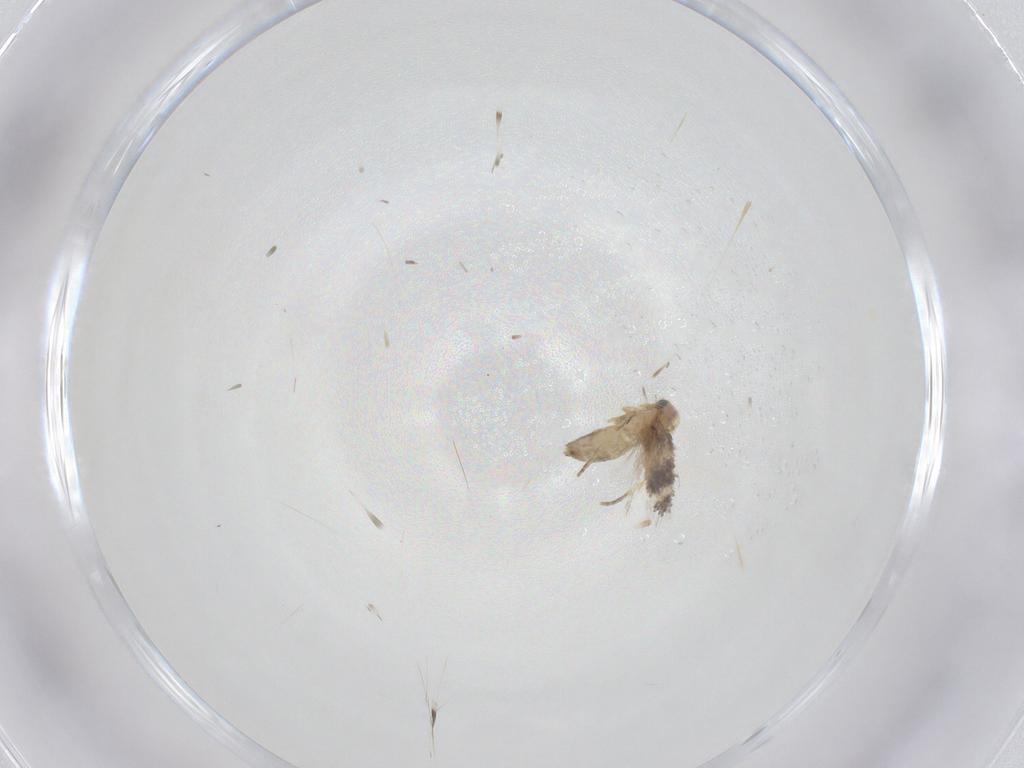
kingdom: Animalia
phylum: Arthropoda
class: Insecta
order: Lepidoptera
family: Nepticulidae
